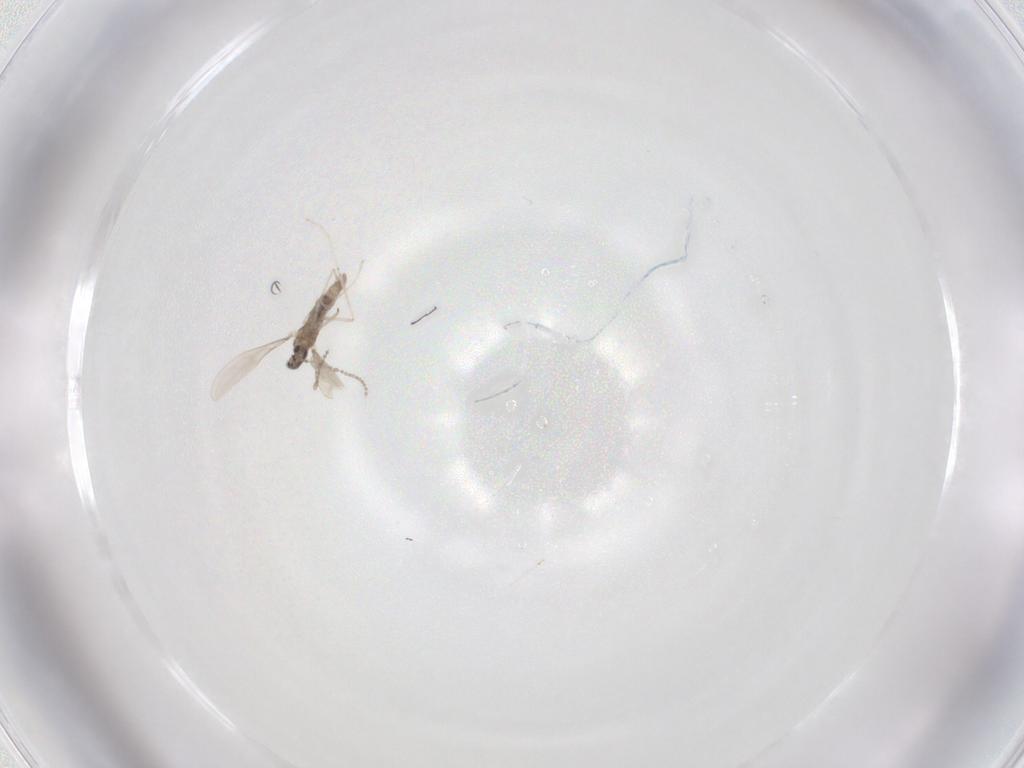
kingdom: Animalia
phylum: Arthropoda
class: Insecta
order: Diptera
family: Cecidomyiidae
